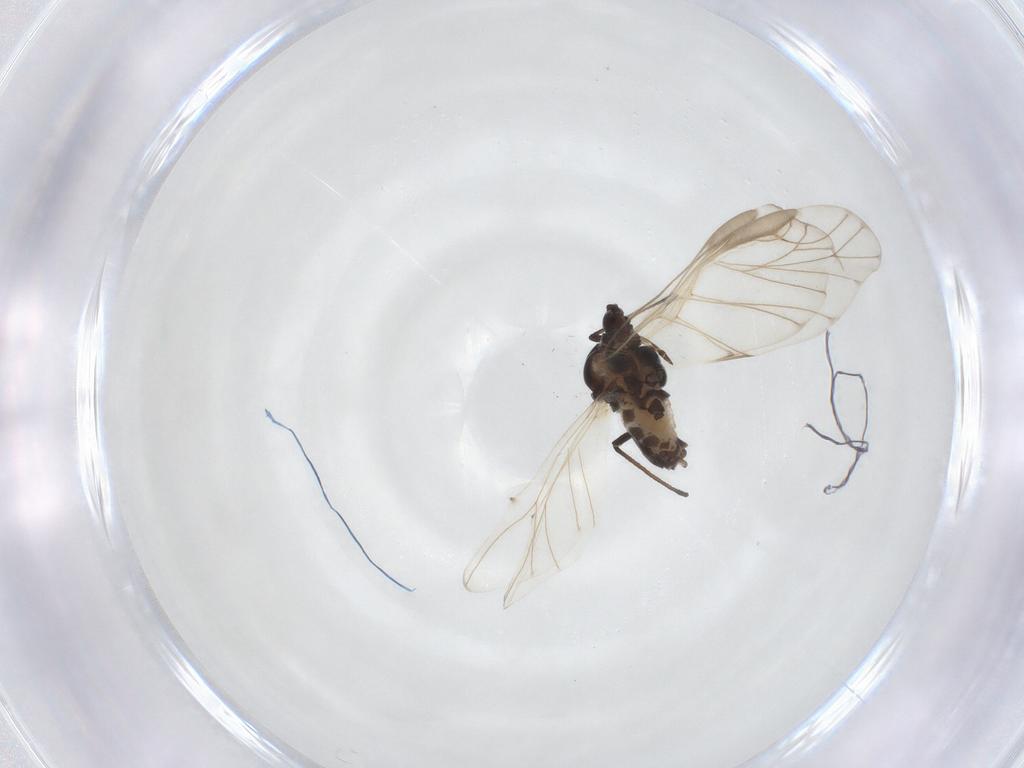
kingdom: Animalia
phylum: Arthropoda
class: Insecta
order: Hemiptera
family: Aphididae
